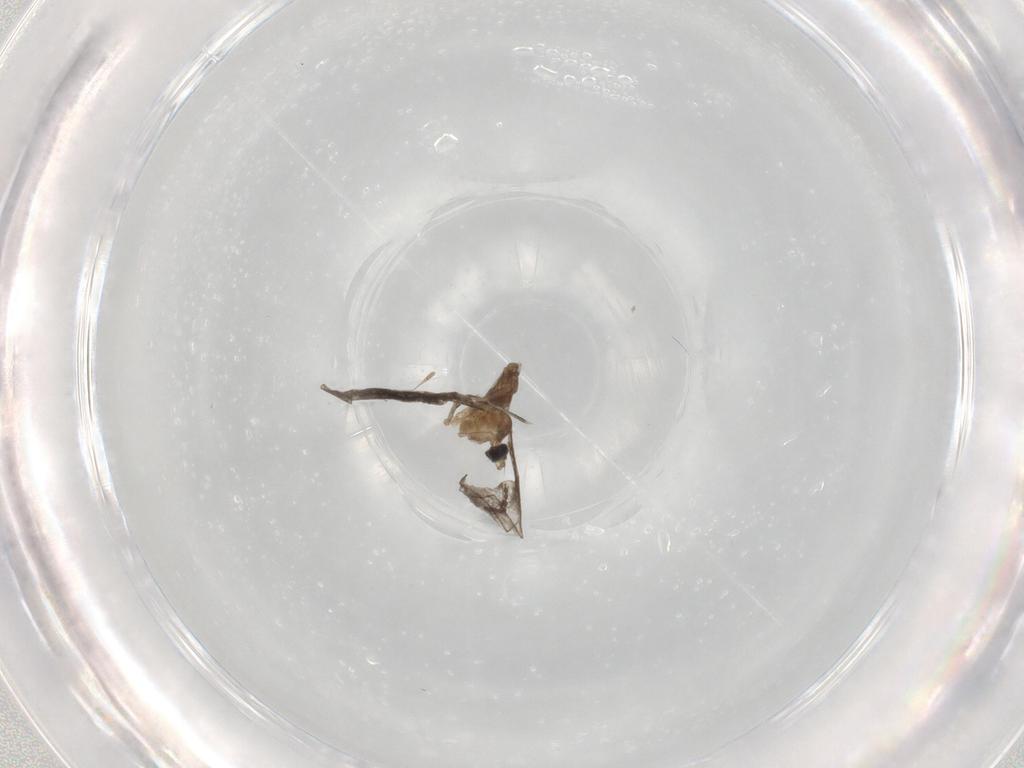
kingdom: Animalia
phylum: Arthropoda
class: Insecta
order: Diptera
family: Cecidomyiidae
